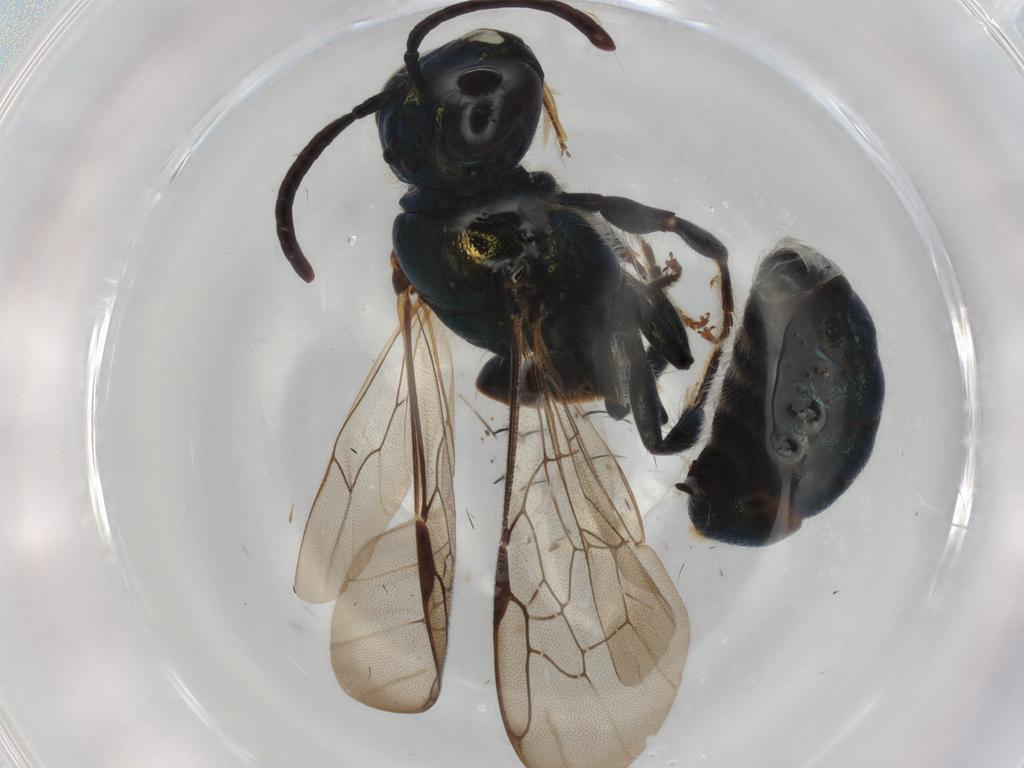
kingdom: Animalia
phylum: Arthropoda
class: Insecta
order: Hymenoptera
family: Apidae
